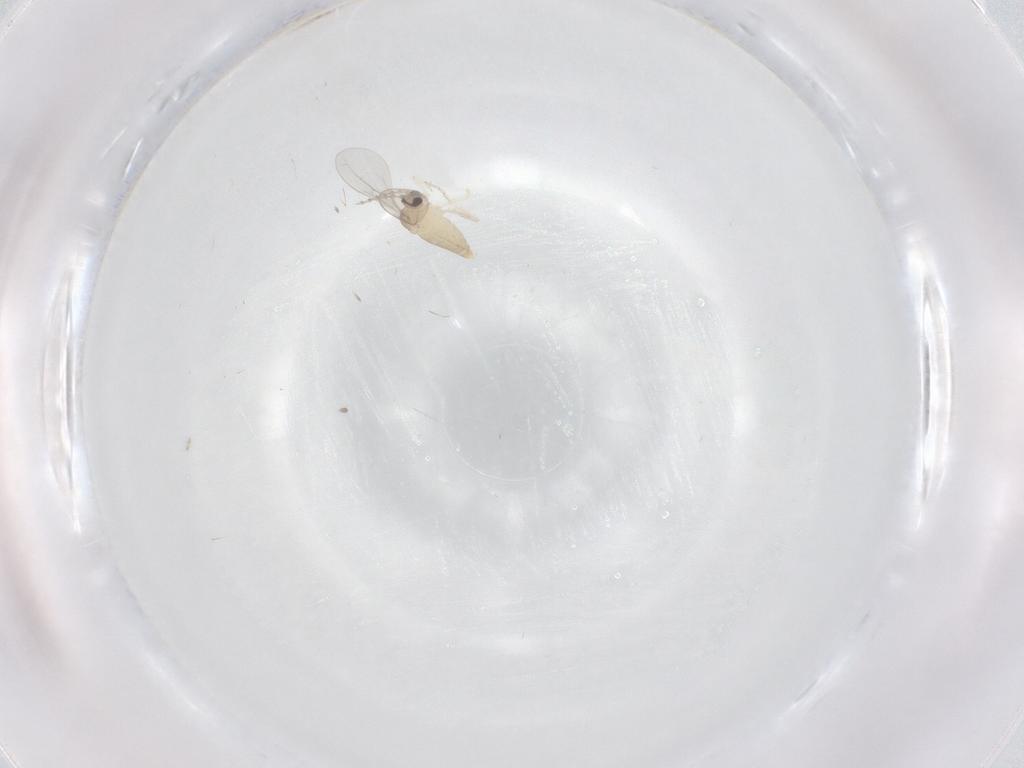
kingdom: Animalia
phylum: Arthropoda
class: Insecta
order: Diptera
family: Cecidomyiidae
